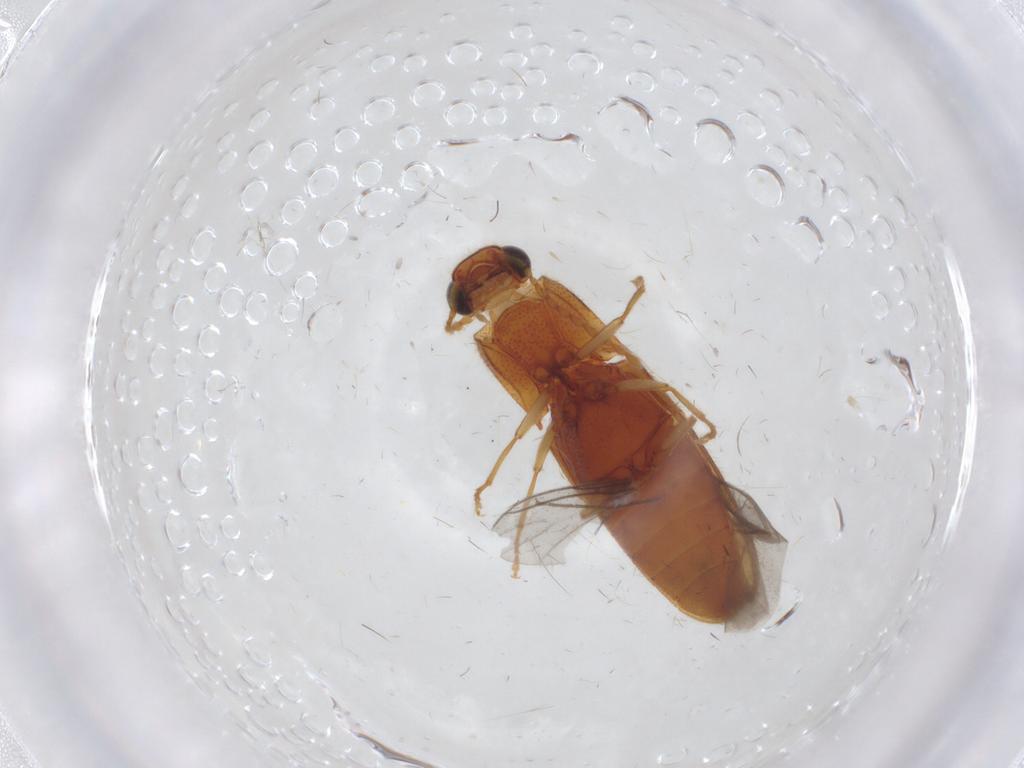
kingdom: Animalia
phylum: Arthropoda
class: Insecta
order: Coleoptera
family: Elateridae
